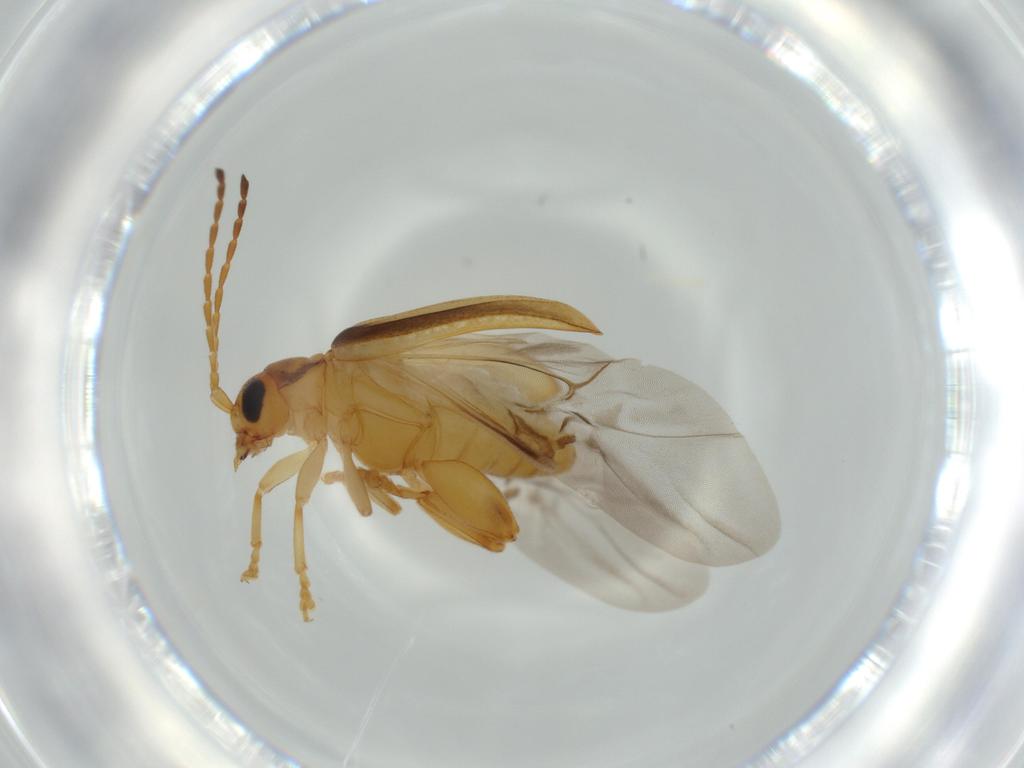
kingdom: Animalia
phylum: Arthropoda
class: Insecta
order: Coleoptera
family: Chrysomelidae
